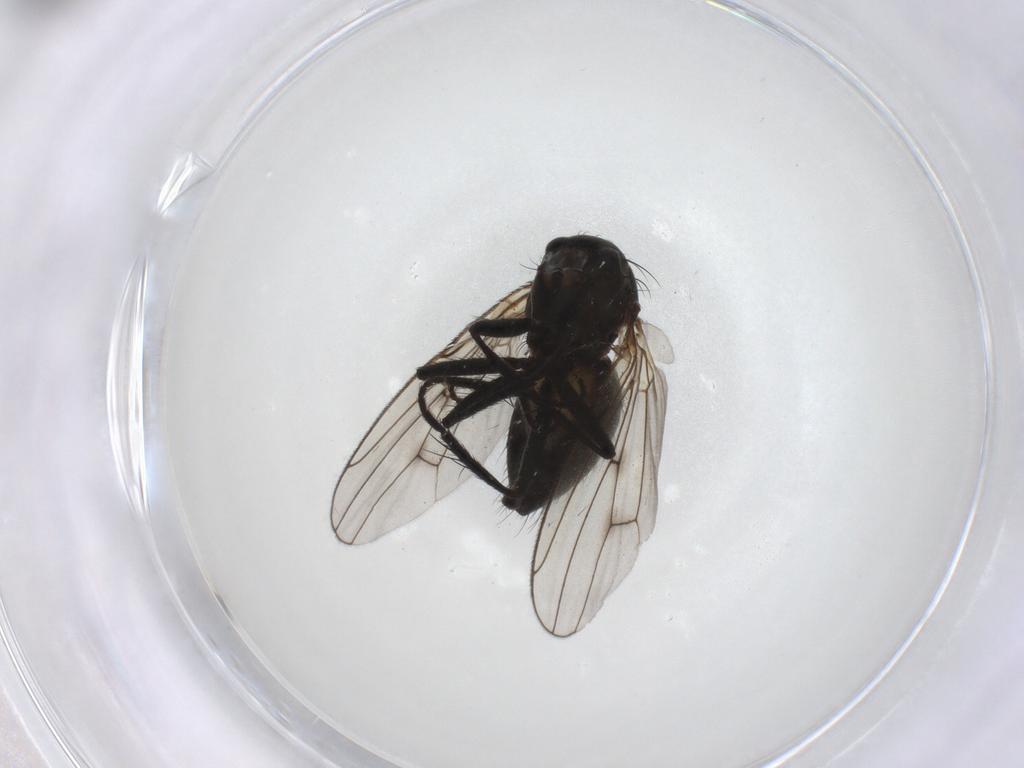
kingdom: Animalia
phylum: Arthropoda
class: Insecta
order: Diptera
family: Muscidae
